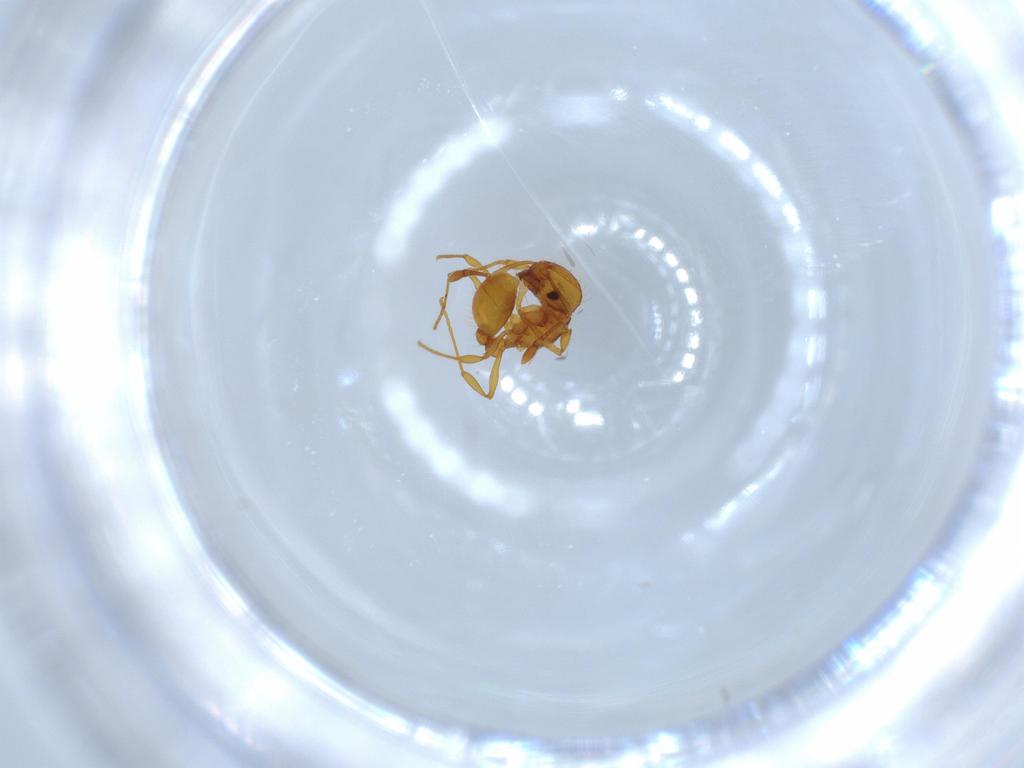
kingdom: Animalia
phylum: Arthropoda
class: Insecta
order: Hymenoptera
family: Formicidae
